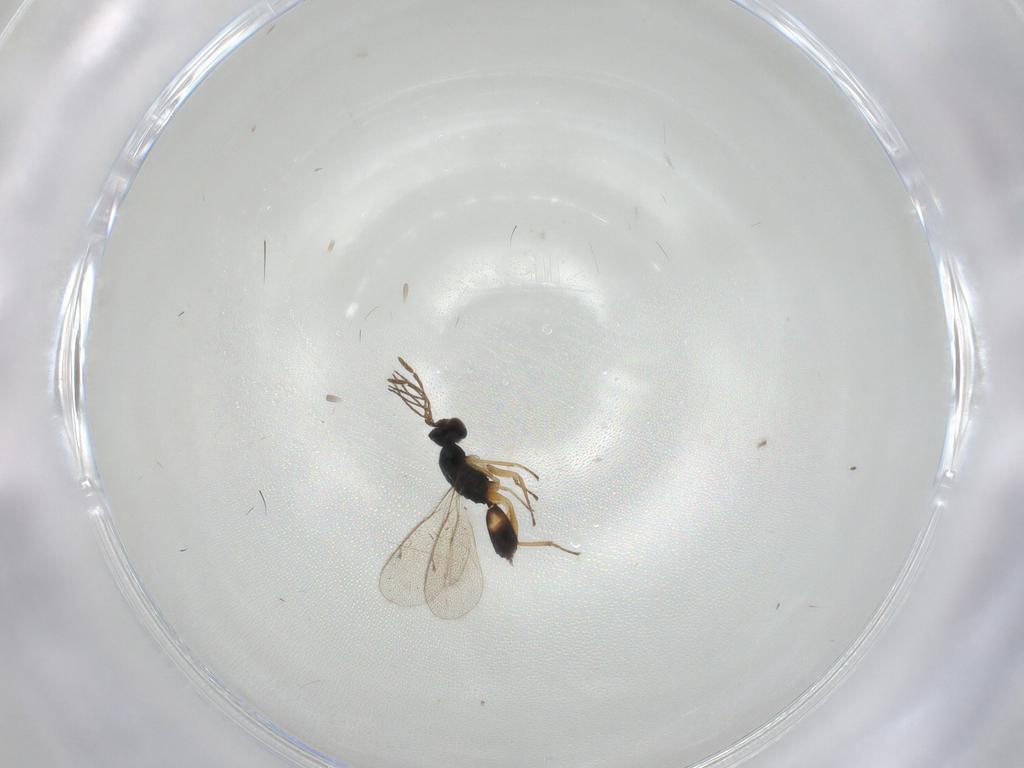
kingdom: Animalia
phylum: Arthropoda
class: Insecta
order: Hymenoptera
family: Eulophidae
